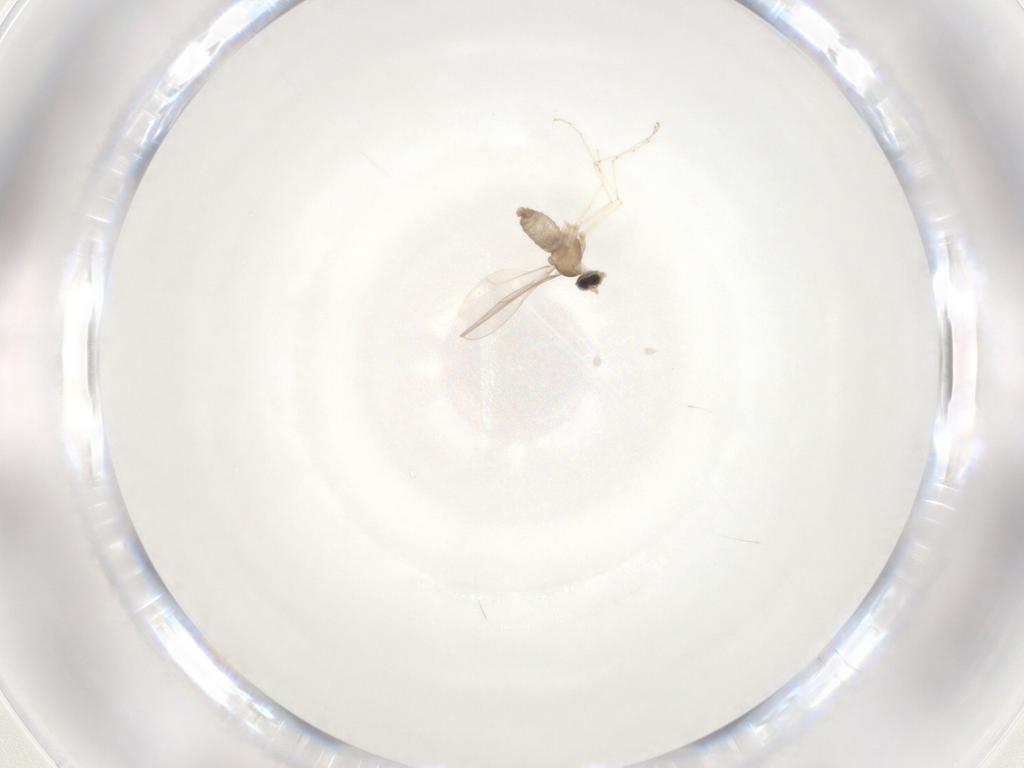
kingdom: Animalia
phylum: Arthropoda
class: Insecta
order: Diptera
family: Cecidomyiidae
